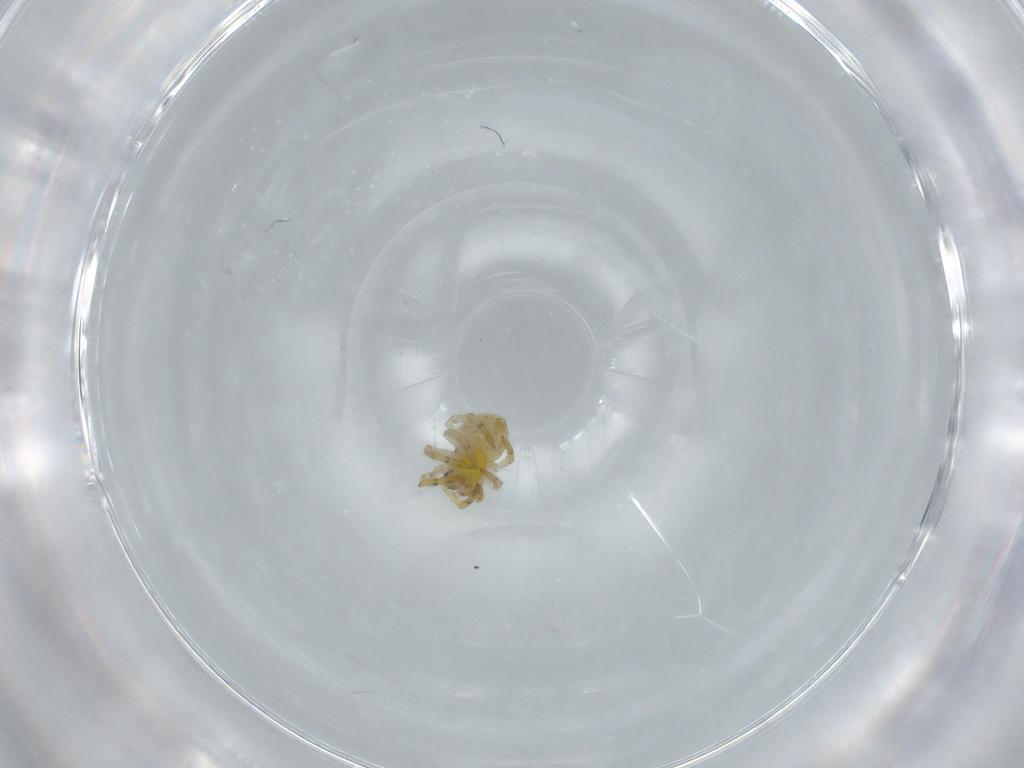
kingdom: Animalia
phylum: Arthropoda
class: Arachnida
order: Araneae
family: Theridiidae
